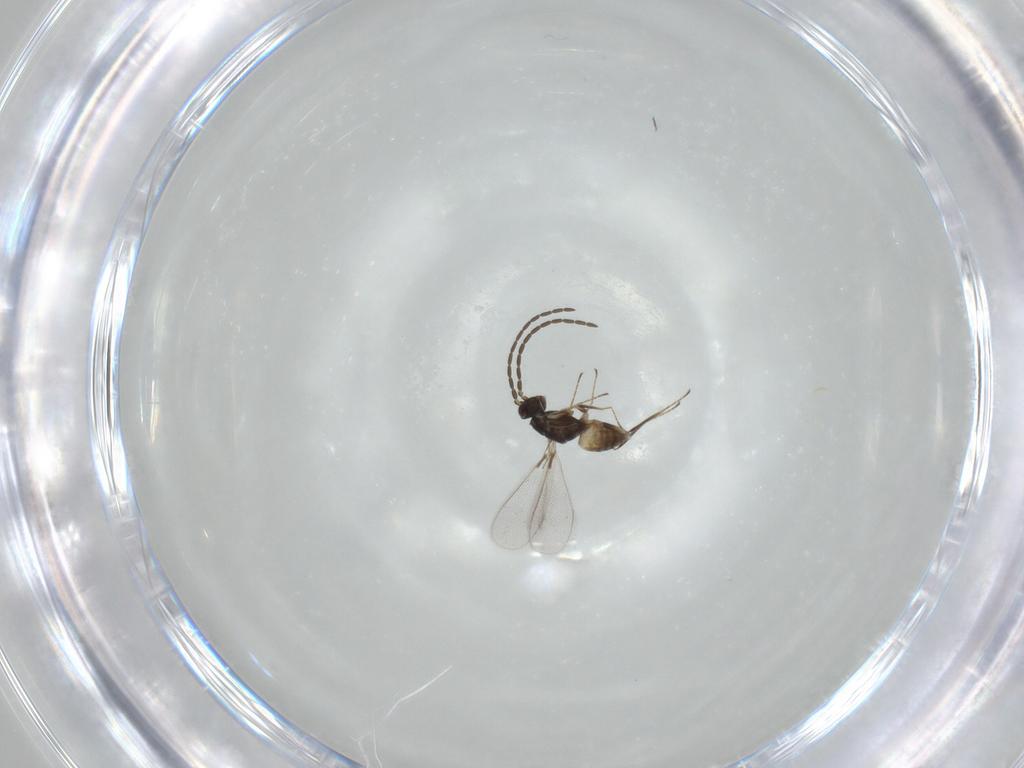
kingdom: Animalia
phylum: Arthropoda
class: Insecta
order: Hymenoptera
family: Mymaridae
